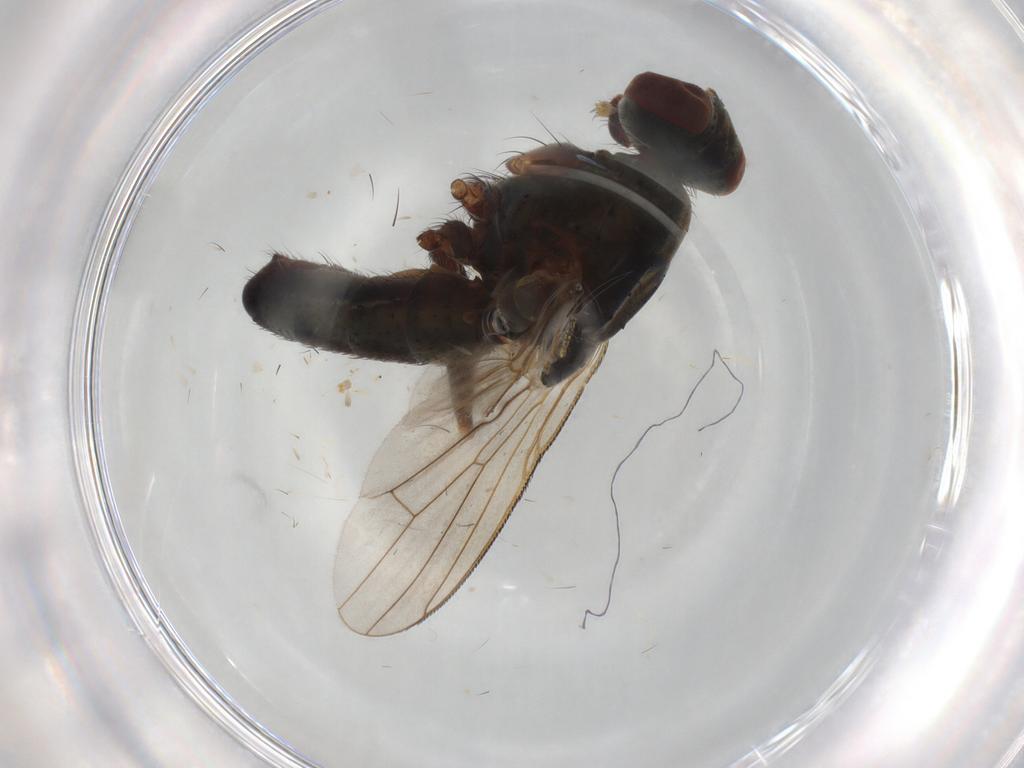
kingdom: Animalia
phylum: Arthropoda
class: Insecta
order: Diptera
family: Muscidae
